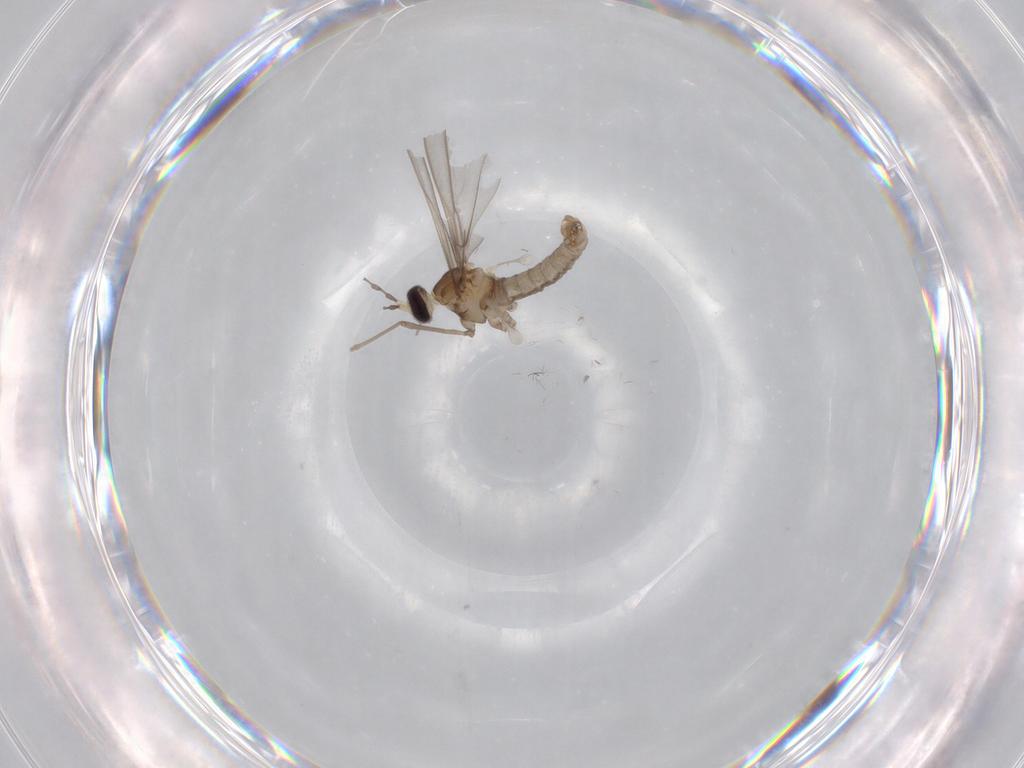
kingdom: Animalia
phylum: Arthropoda
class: Insecta
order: Diptera
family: Cecidomyiidae
